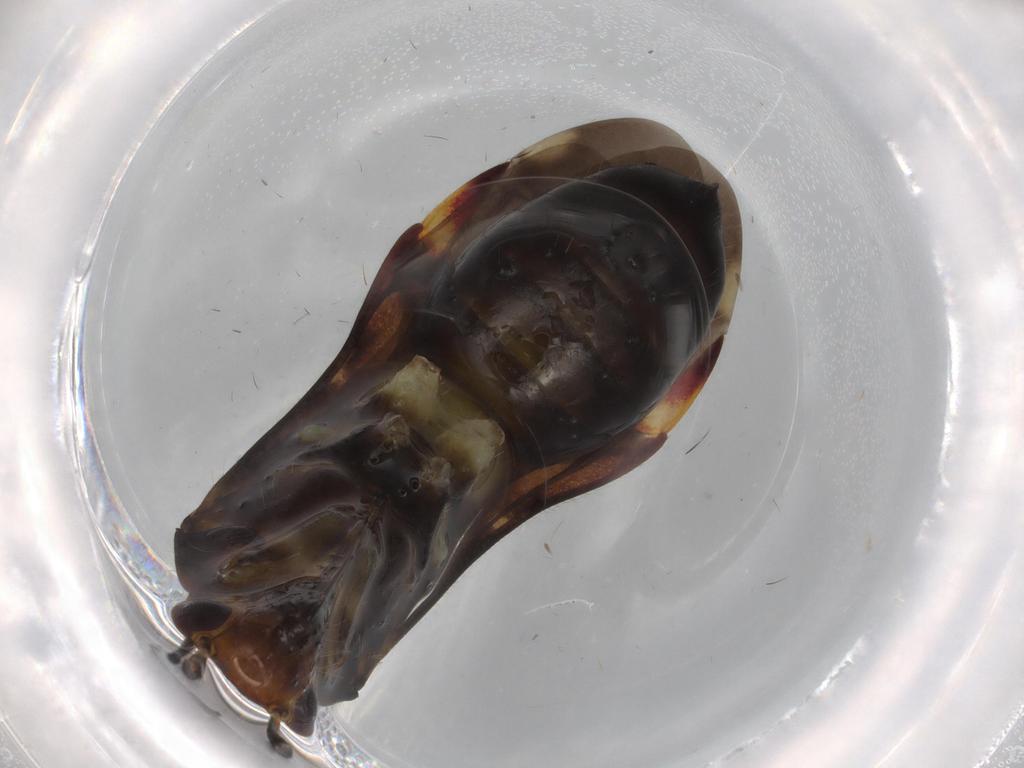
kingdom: Animalia
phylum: Arthropoda
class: Insecta
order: Hemiptera
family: Miridae
